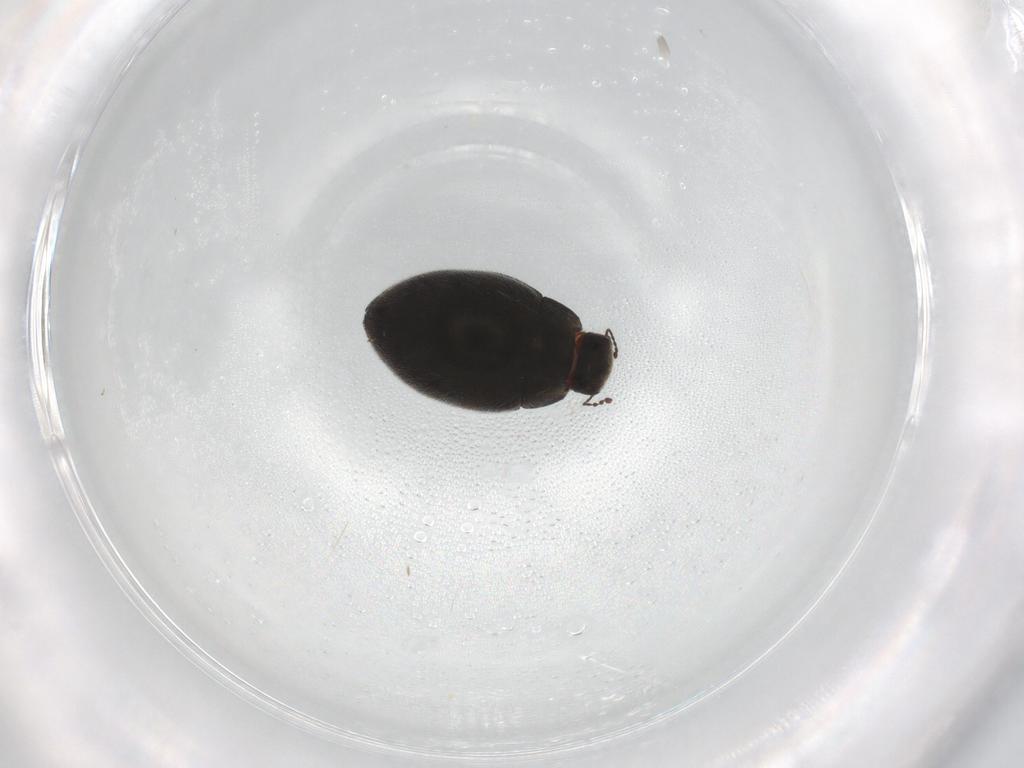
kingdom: Animalia
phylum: Arthropoda
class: Insecta
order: Coleoptera
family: Limnichidae
